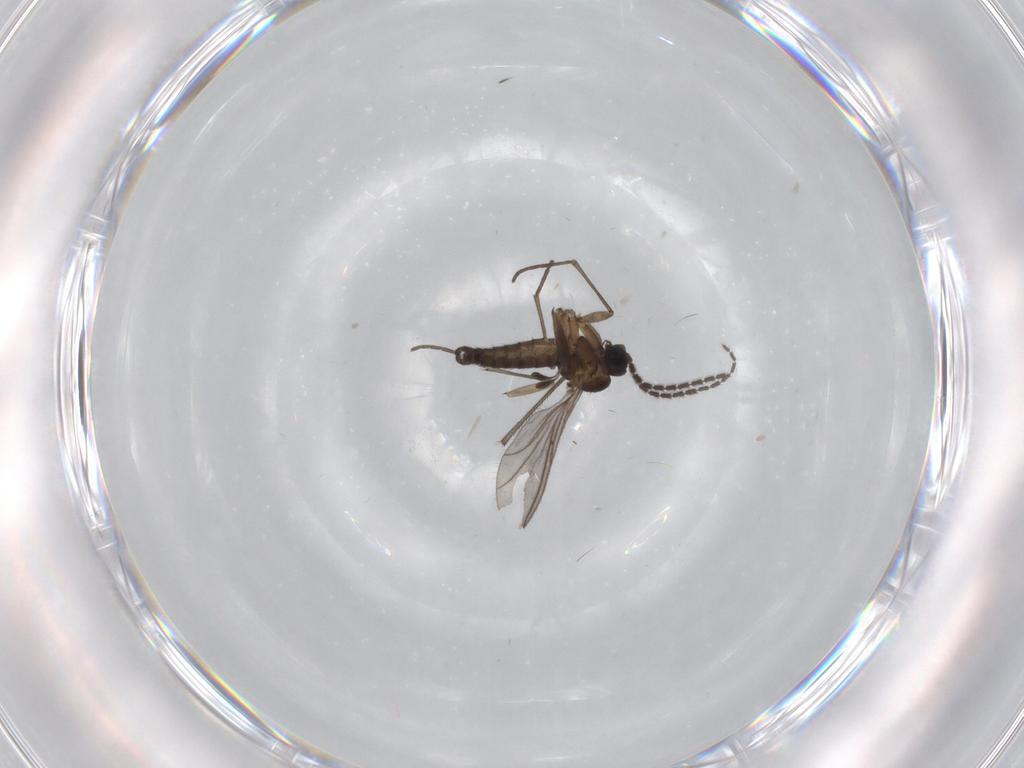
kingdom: Animalia
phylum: Arthropoda
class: Insecta
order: Diptera
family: Sciaridae
